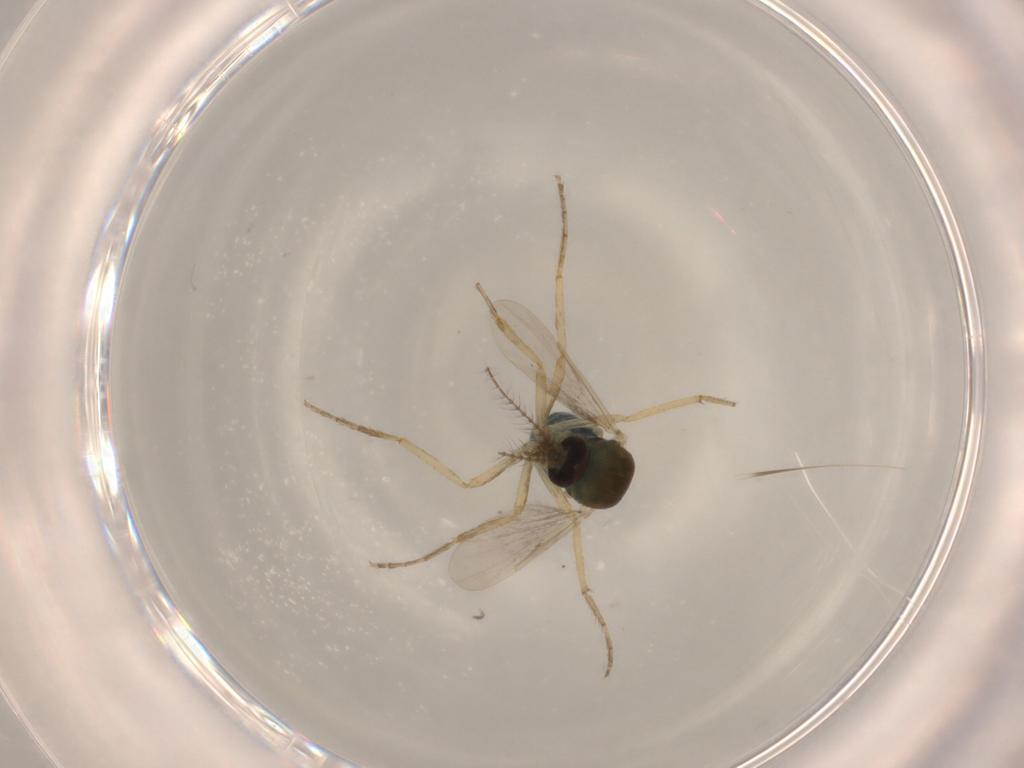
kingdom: Animalia
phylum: Arthropoda
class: Insecta
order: Diptera
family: Ceratopogonidae
